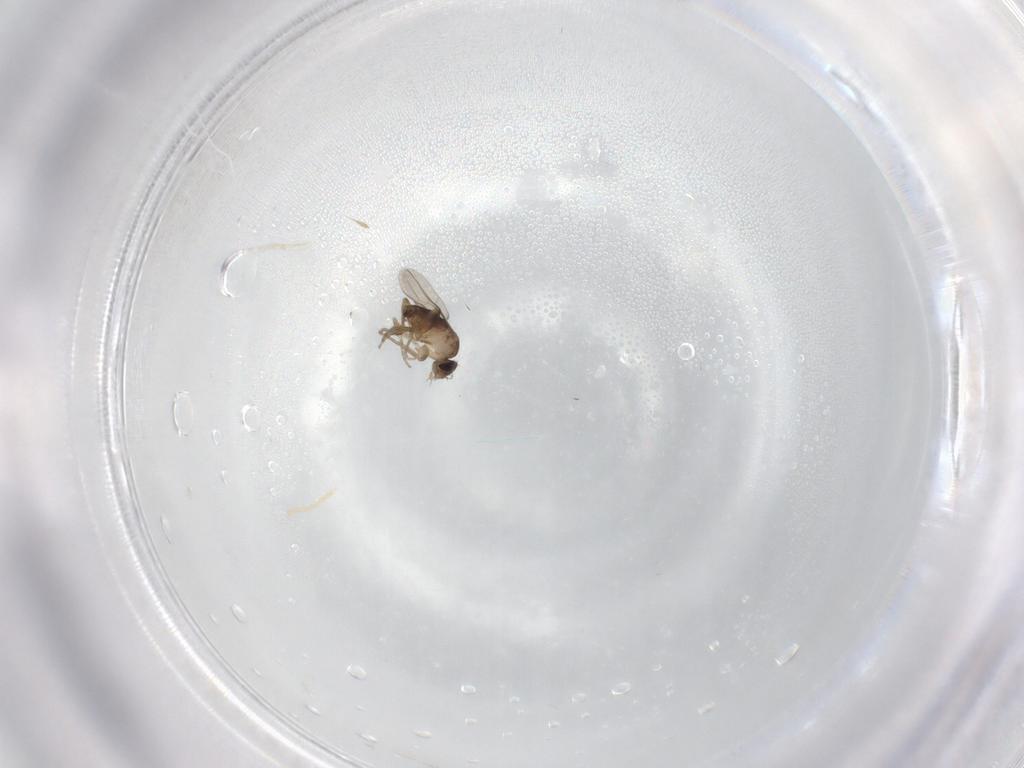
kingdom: Animalia
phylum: Arthropoda
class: Insecta
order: Diptera
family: Phoridae
